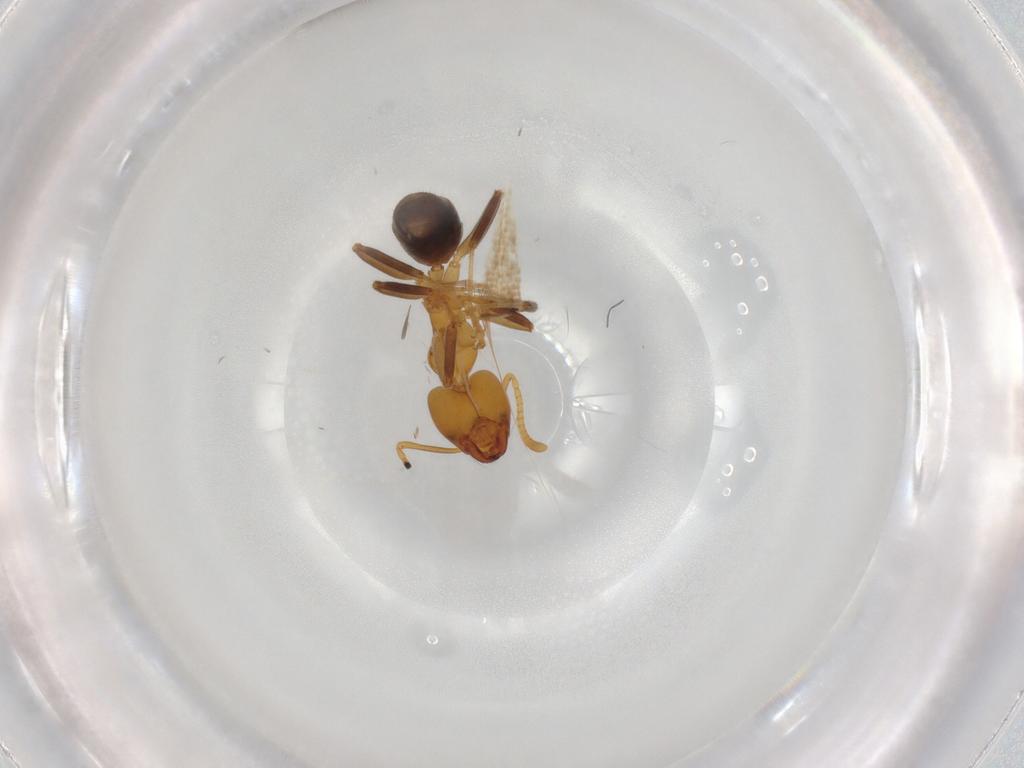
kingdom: Animalia
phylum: Arthropoda
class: Insecta
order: Hymenoptera
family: Formicidae
